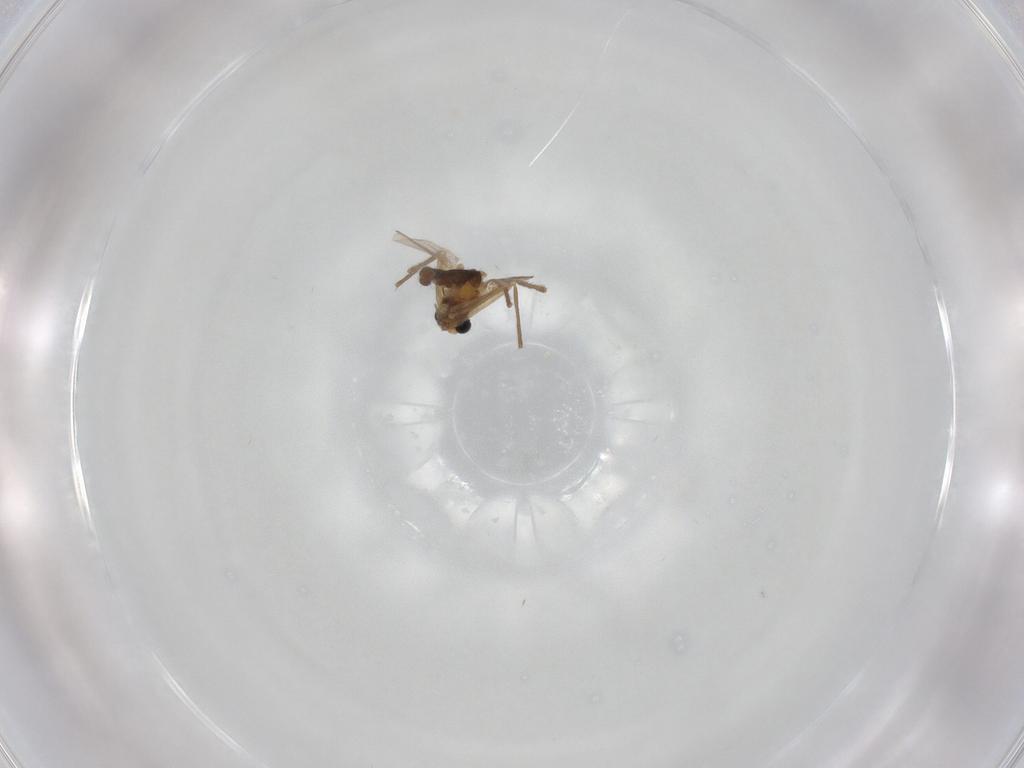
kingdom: Animalia
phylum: Arthropoda
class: Insecta
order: Diptera
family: Chironomidae
